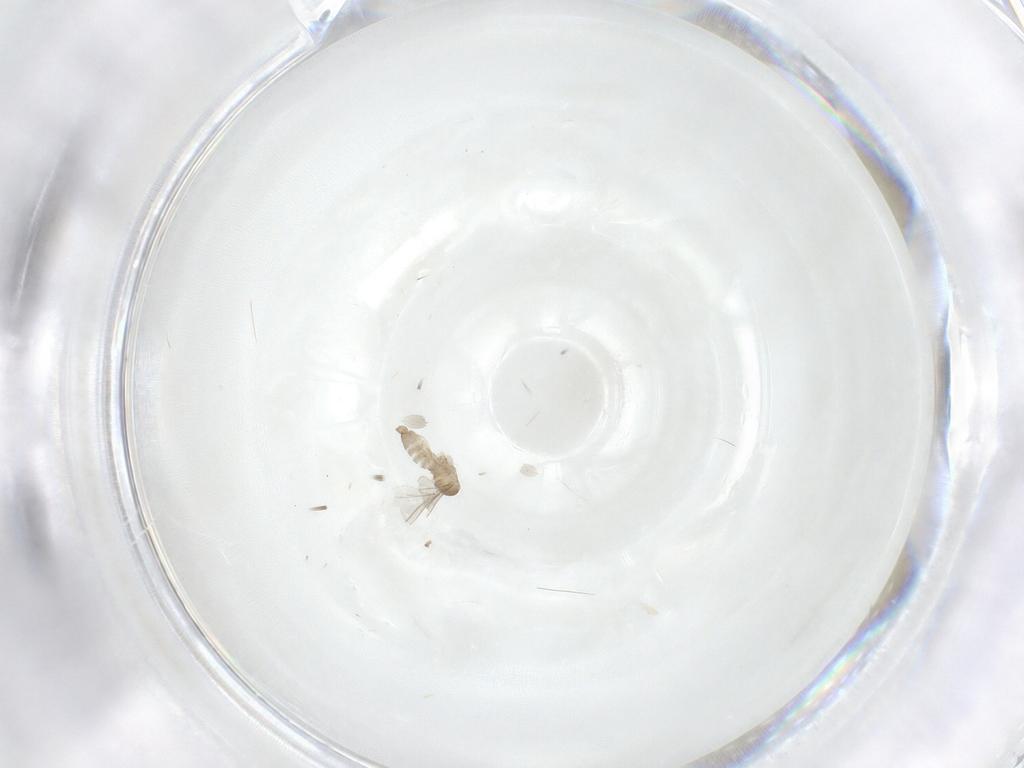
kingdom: Animalia
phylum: Arthropoda
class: Insecta
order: Diptera
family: Cecidomyiidae
